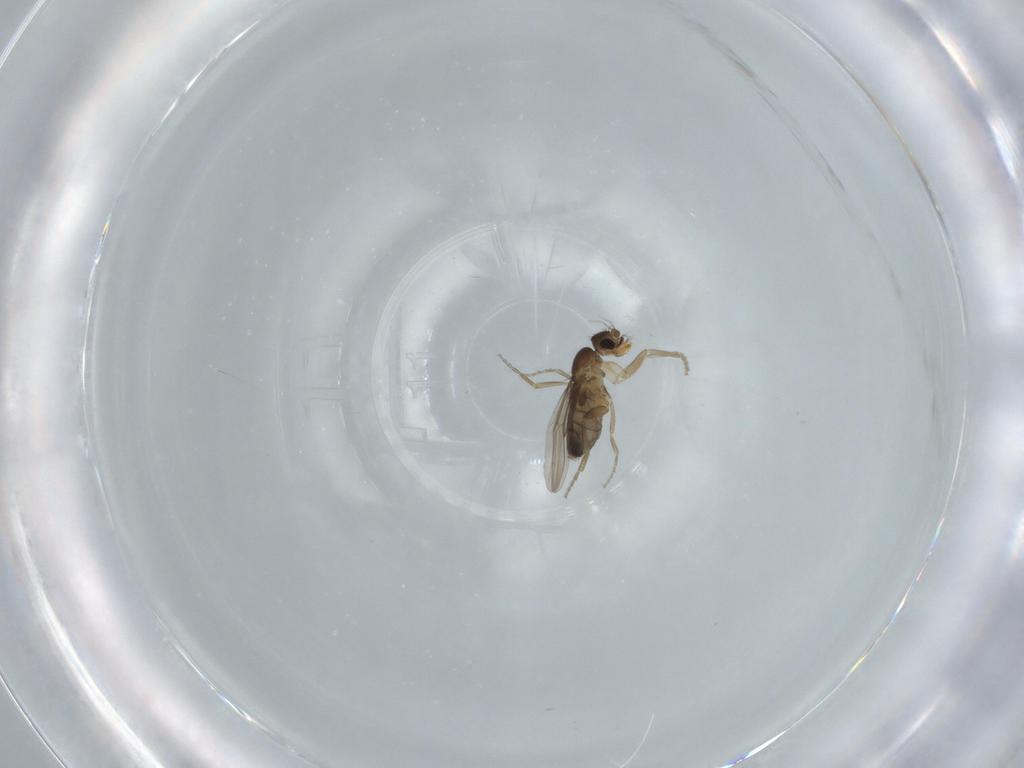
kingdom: Animalia
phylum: Arthropoda
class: Insecta
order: Diptera
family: Phoridae
